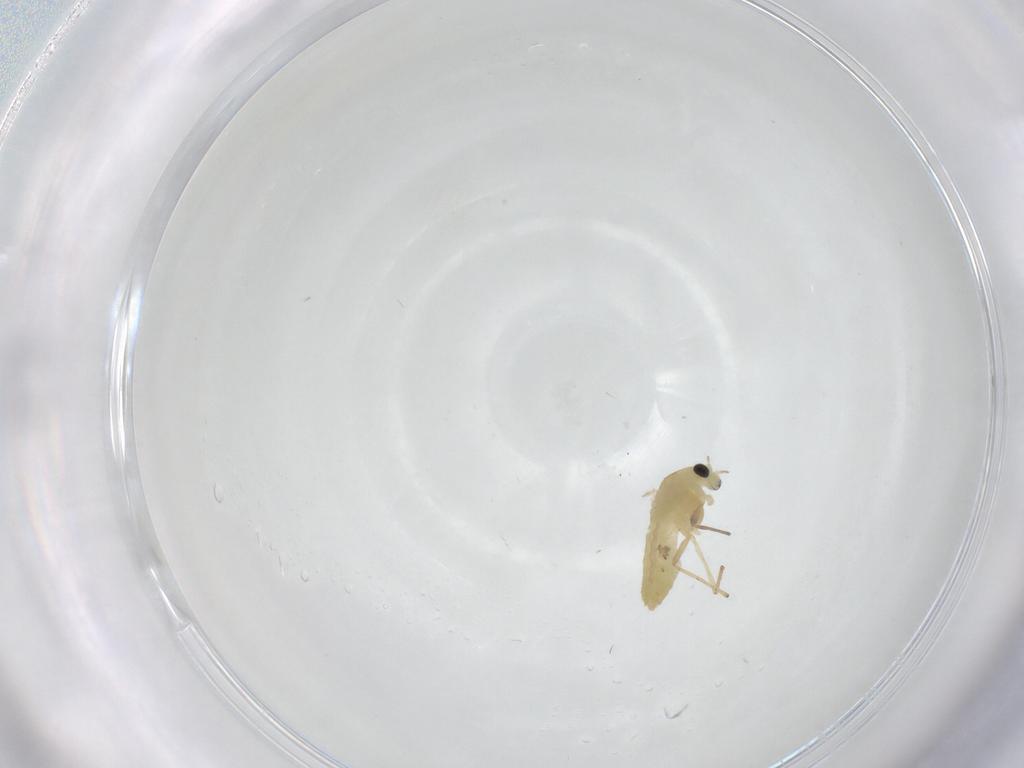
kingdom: Animalia
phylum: Arthropoda
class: Insecta
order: Diptera
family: Chironomidae
